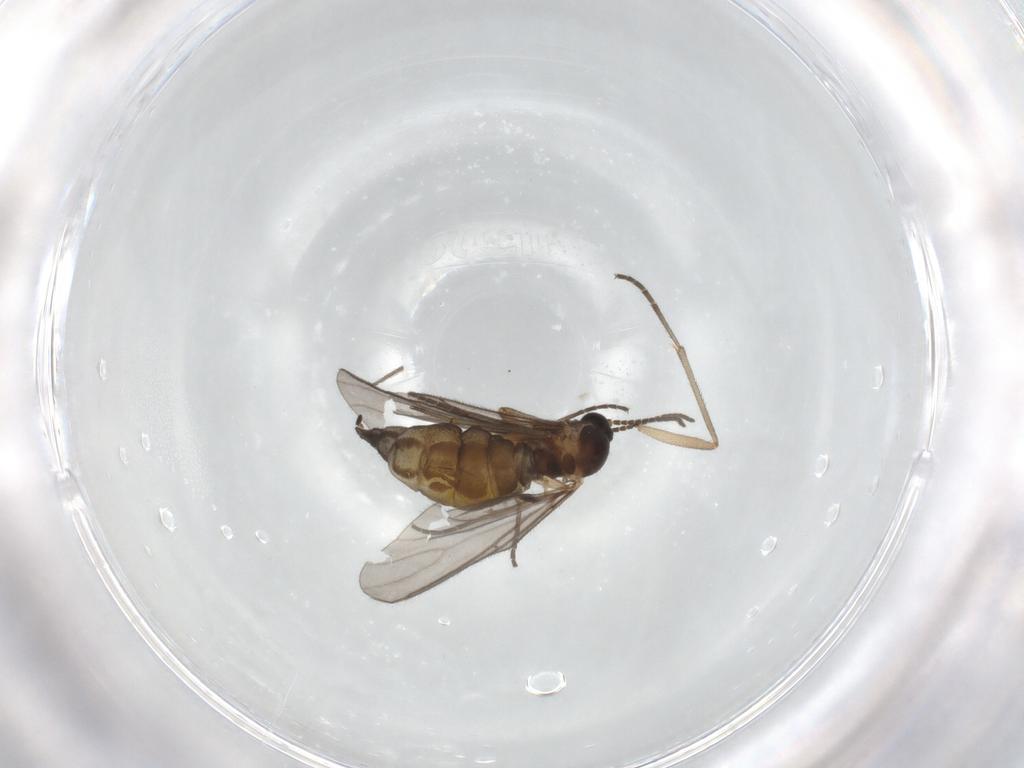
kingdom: Animalia
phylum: Arthropoda
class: Insecta
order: Diptera
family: Sciaridae
